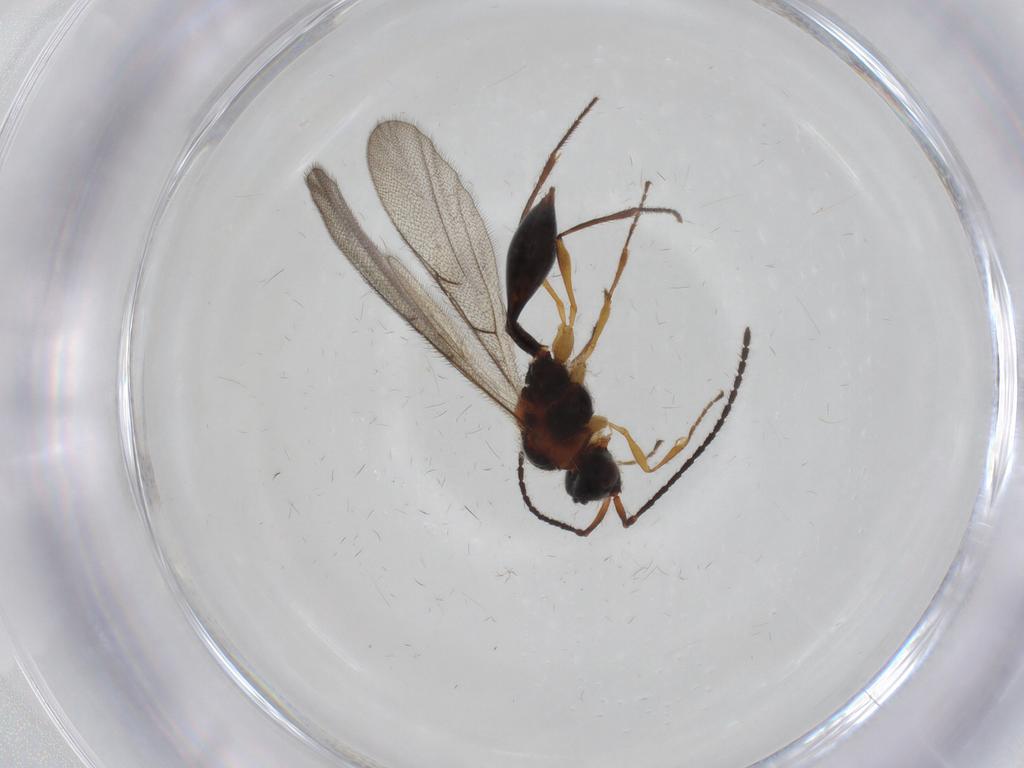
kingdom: Animalia
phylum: Arthropoda
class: Insecta
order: Hymenoptera
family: Diapriidae
